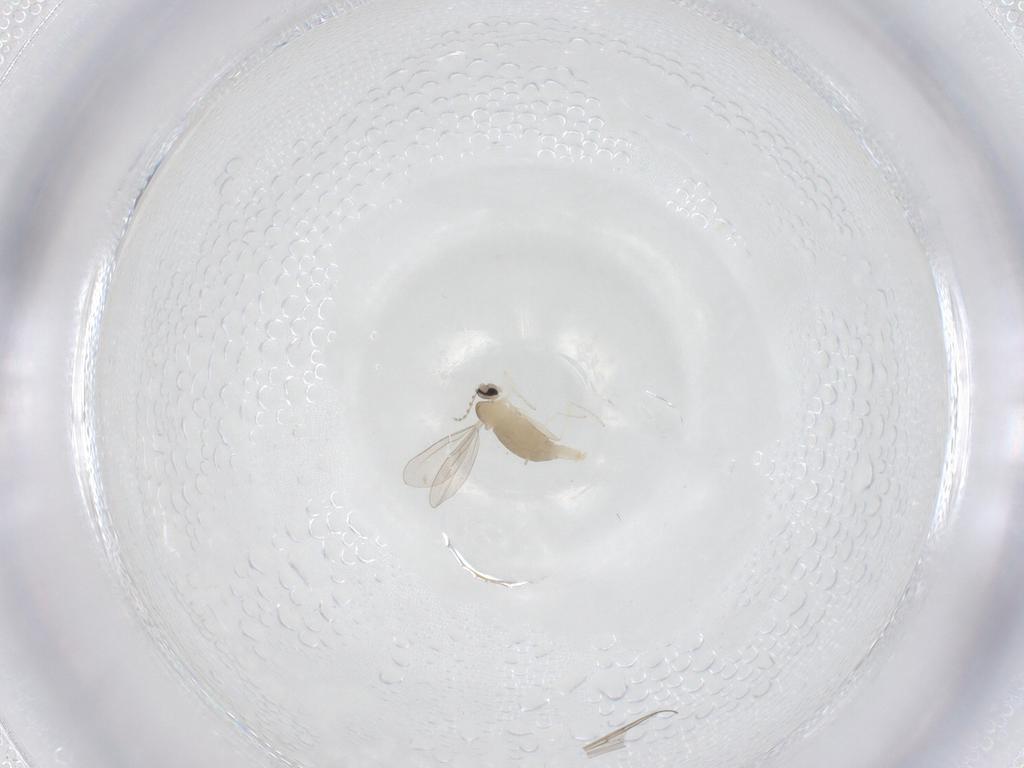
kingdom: Animalia
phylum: Arthropoda
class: Insecta
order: Diptera
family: Cecidomyiidae
